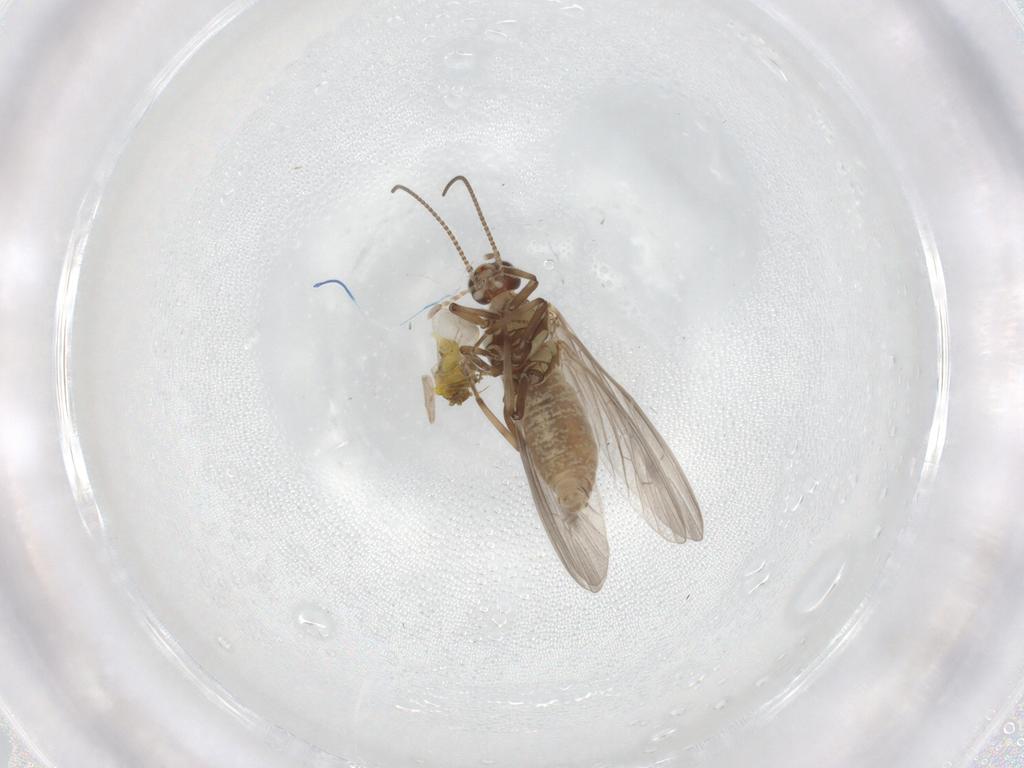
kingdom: Animalia
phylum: Arthropoda
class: Insecta
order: Neuroptera
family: Coniopterygidae
